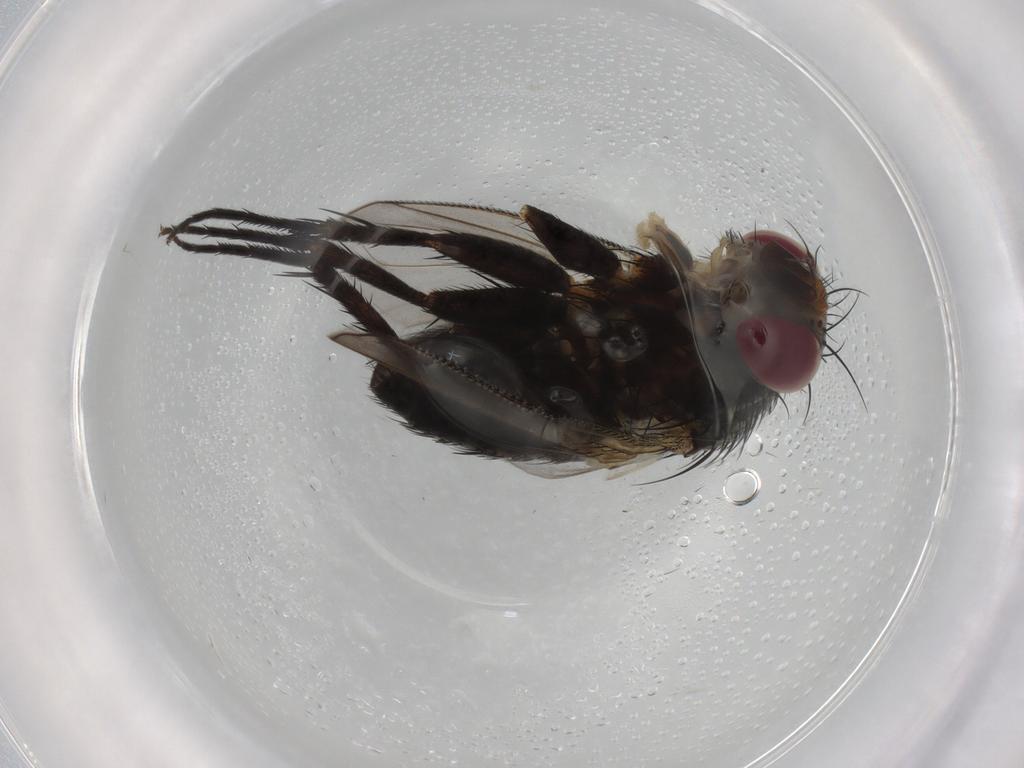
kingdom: Animalia
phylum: Arthropoda
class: Insecta
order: Diptera
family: Tachinidae
